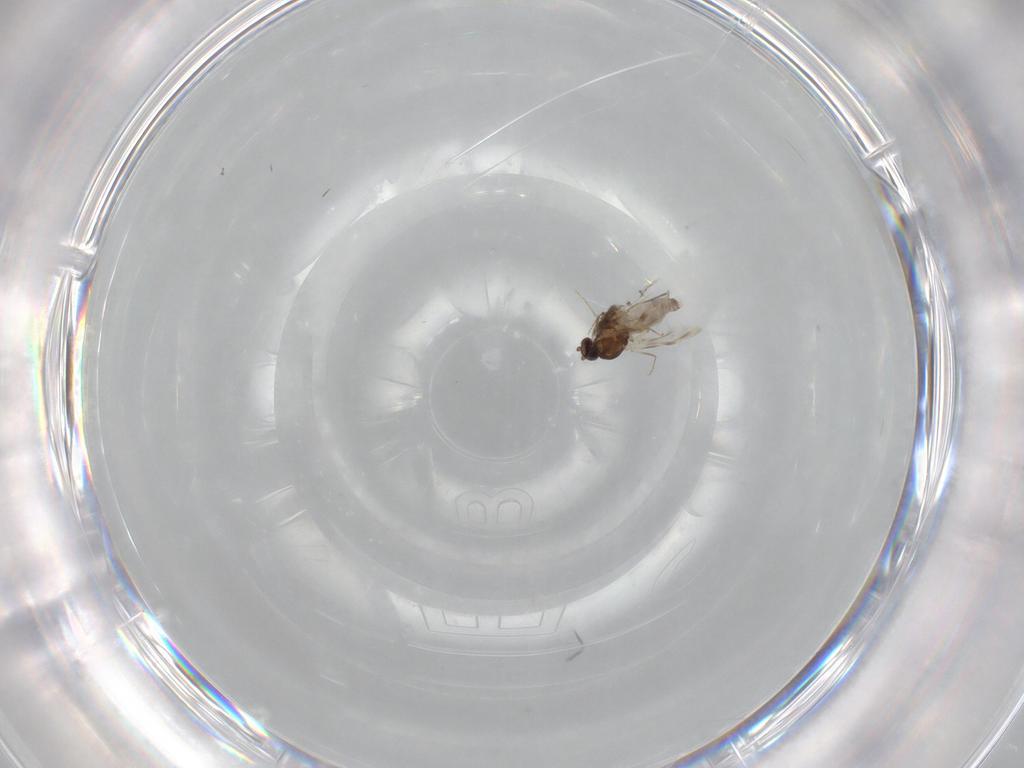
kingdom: Animalia
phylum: Arthropoda
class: Insecta
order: Diptera
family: Ceratopogonidae
